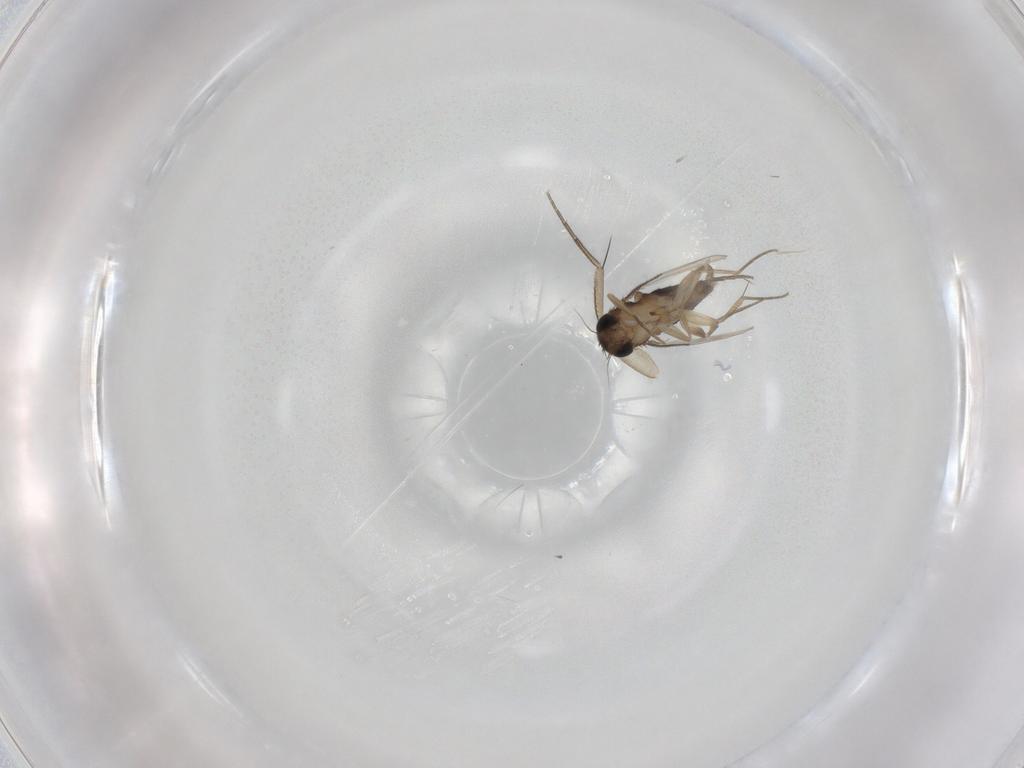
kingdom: Animalia
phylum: Arthropoda
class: Insecta
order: Diptera
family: Phoridae
